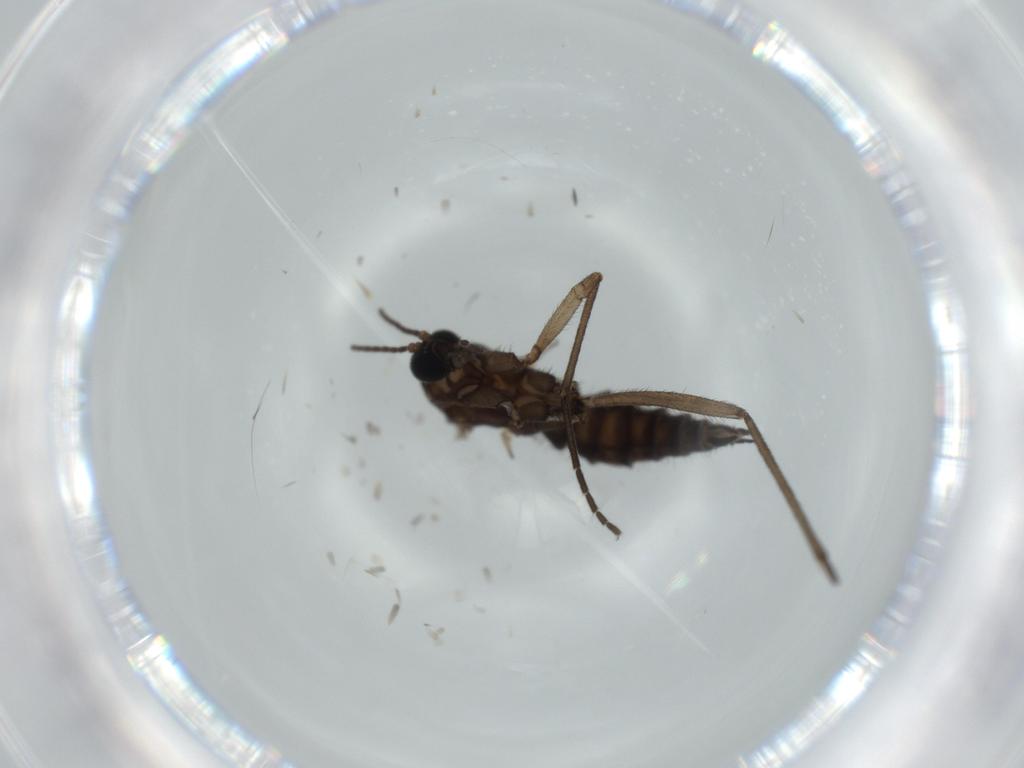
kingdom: Animalia
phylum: Arthropoda
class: Insecta
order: Diptera
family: Sciaridae
